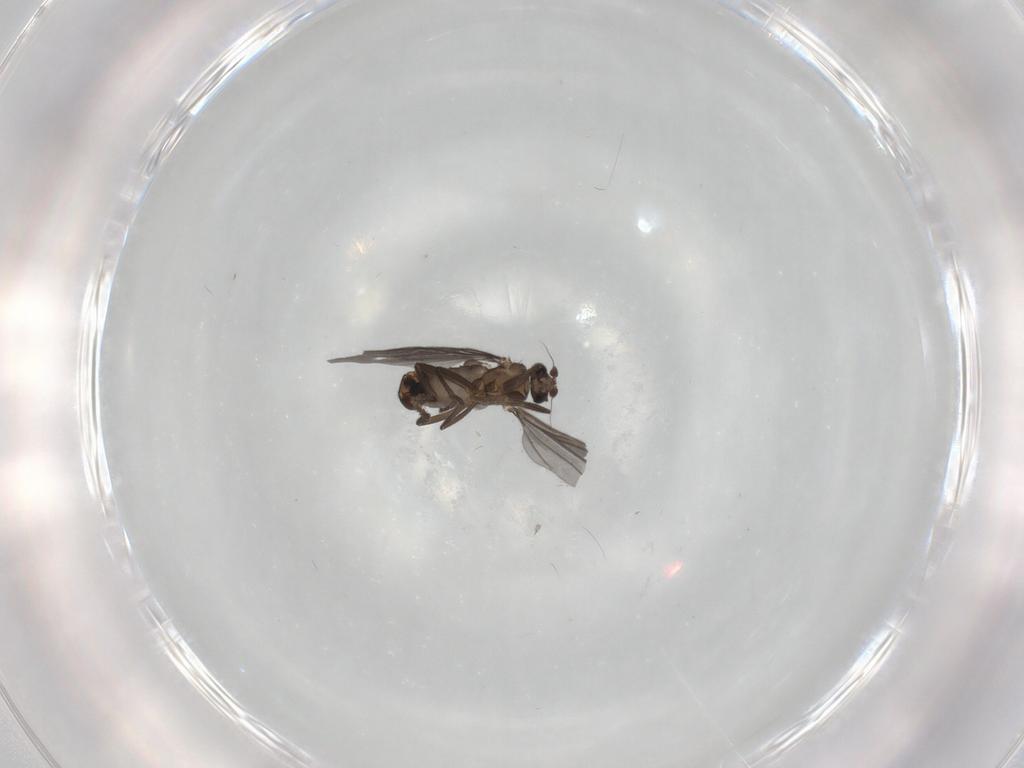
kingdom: Animalia
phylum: Arthropoda
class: Insecta
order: Diptera
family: Phoridae
